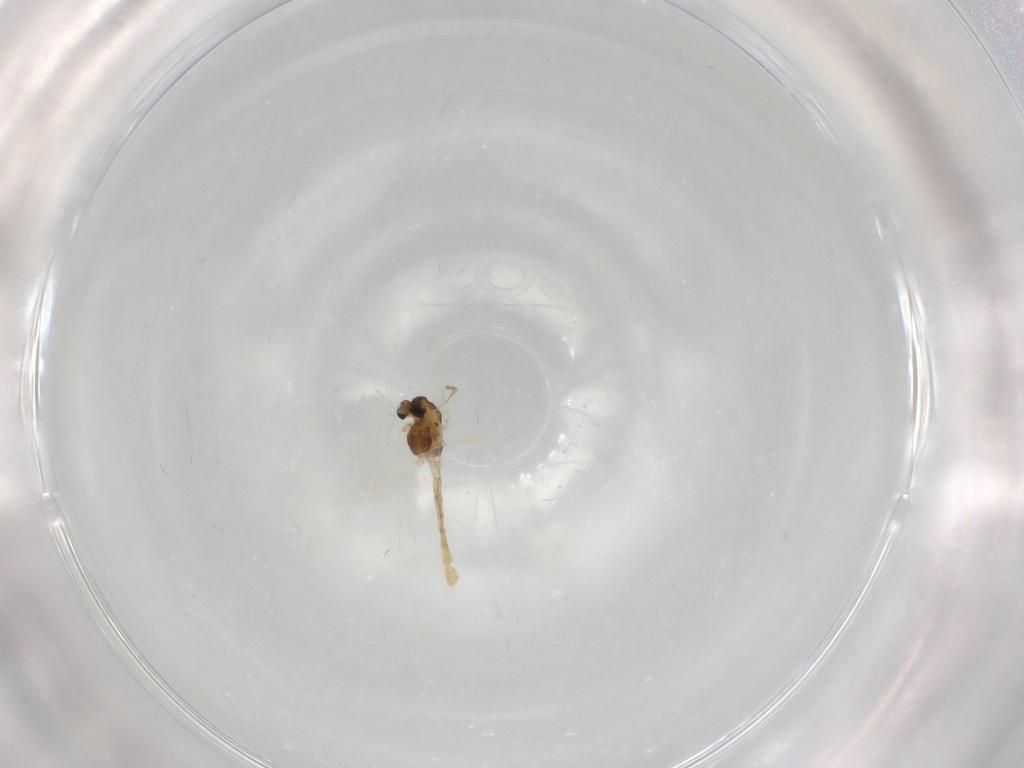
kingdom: Animalia
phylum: Arthropoda
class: Insecta
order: Diptera
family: Chironomidae
